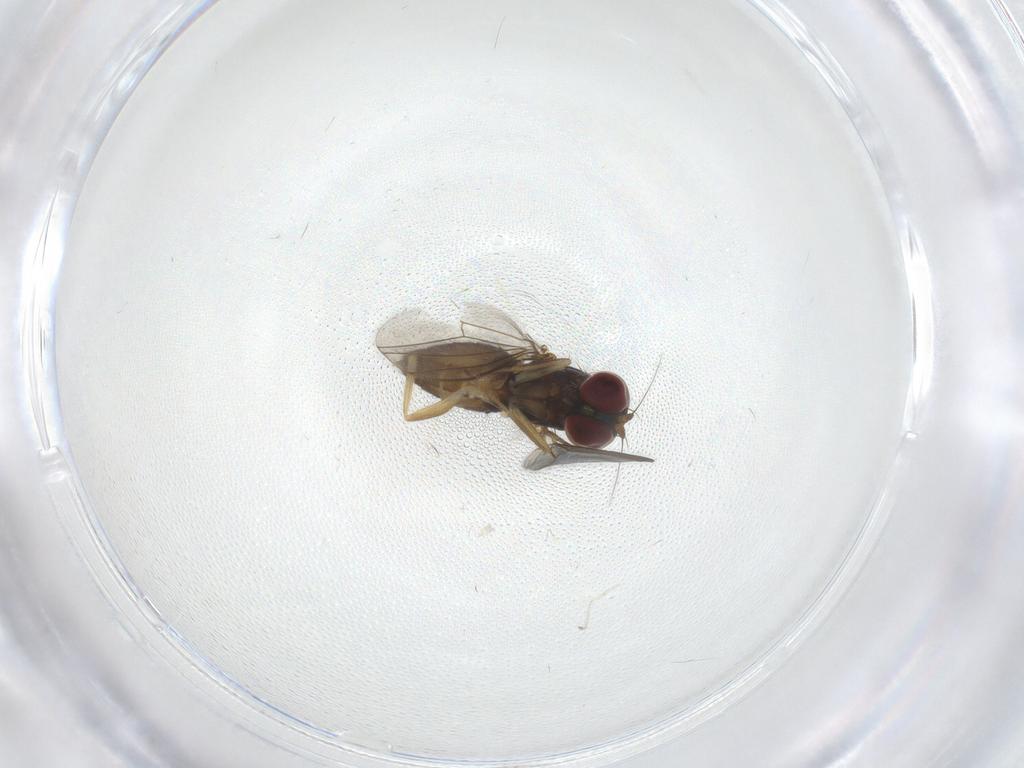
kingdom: Animalia
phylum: Arthropoda
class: Insecta
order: Diptera
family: Dolichopodidae
